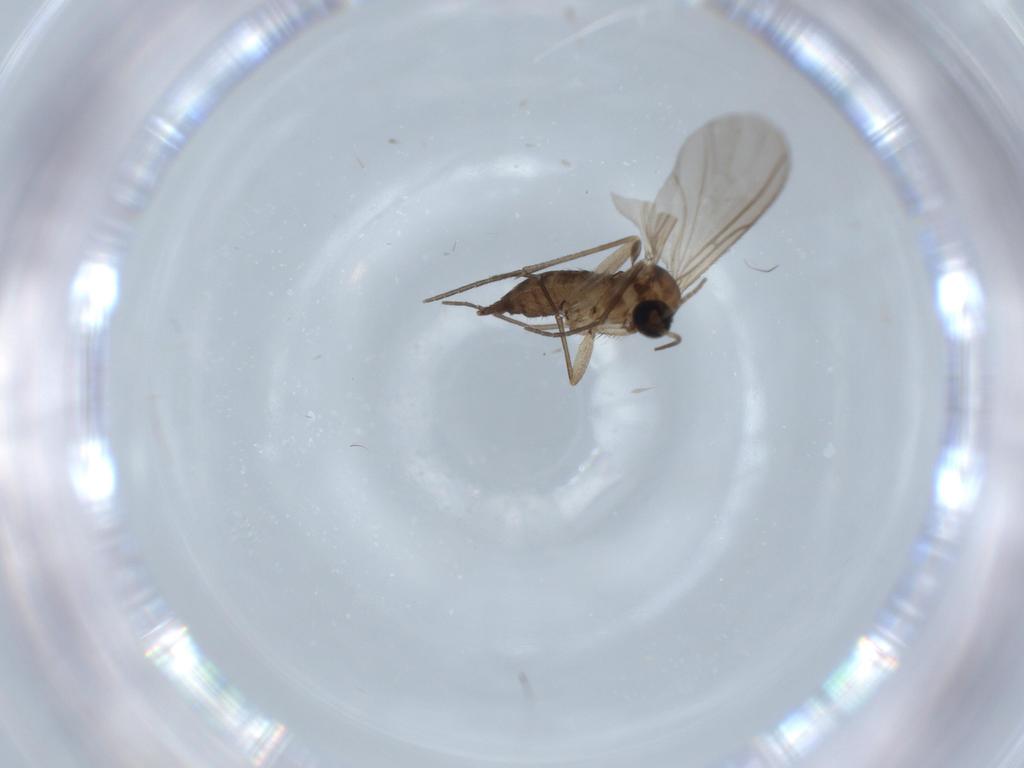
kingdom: Animalia
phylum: Arthropoda
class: Insecta
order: Diptera
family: Sciaridae
